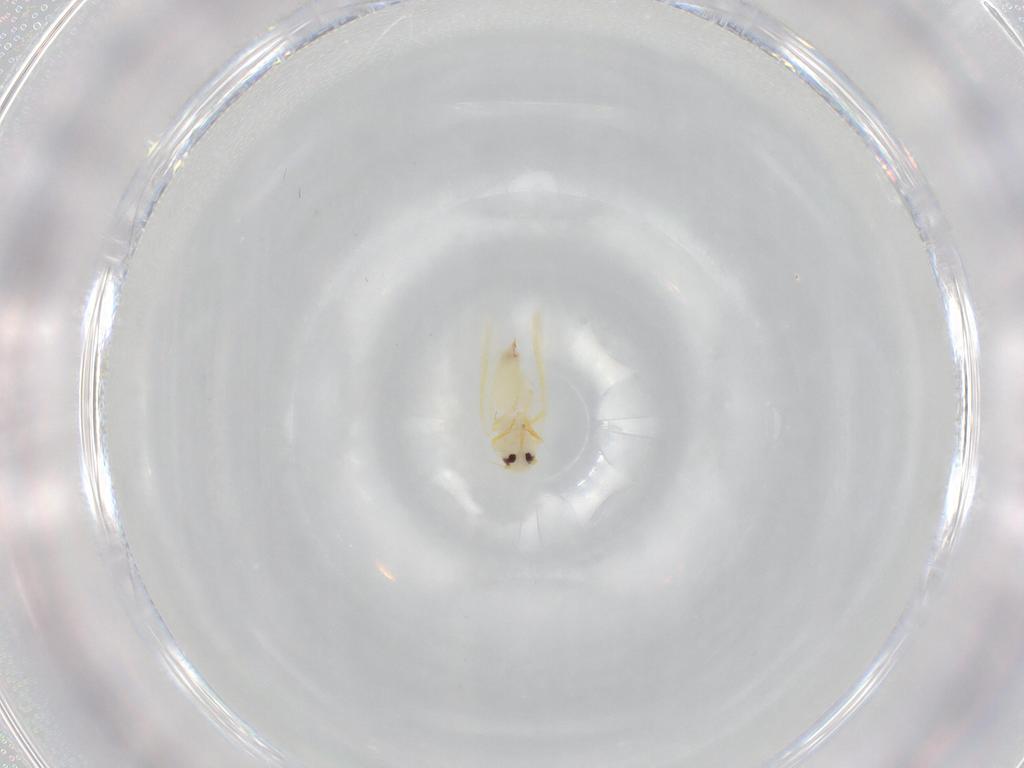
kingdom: Animalia
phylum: Arthropoda
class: Insecta
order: Hemiptera
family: Aleyrodidae
